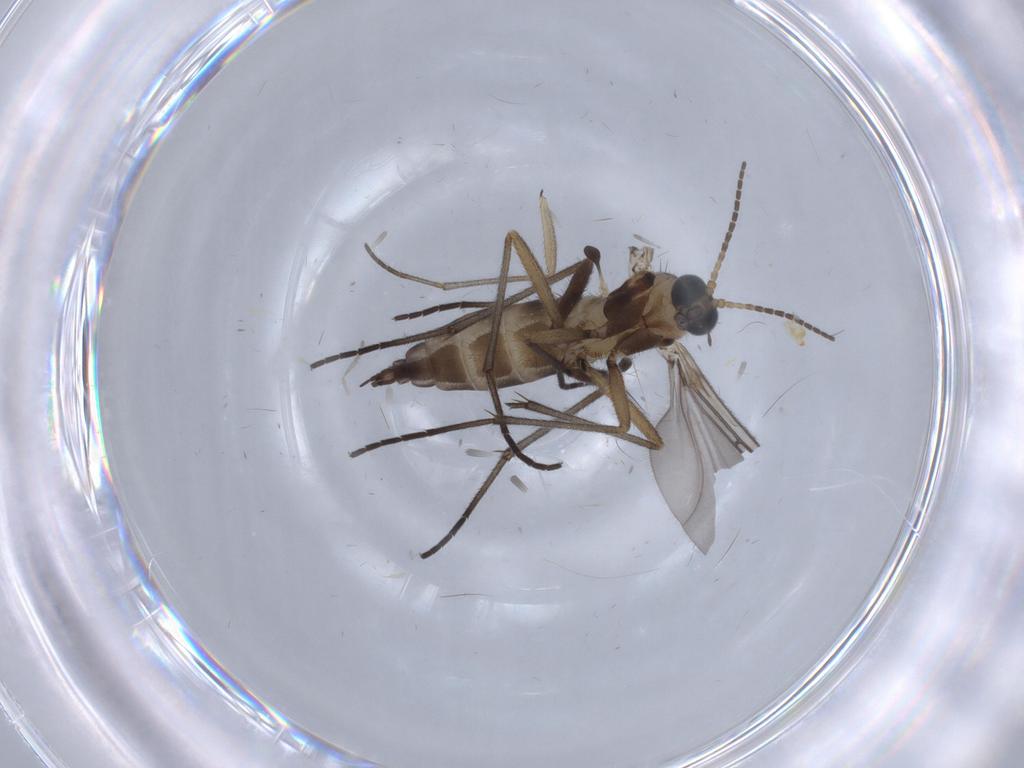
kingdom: Animalia
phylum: Arthropoda
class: Insecta
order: Diptera
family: Sciaridae
